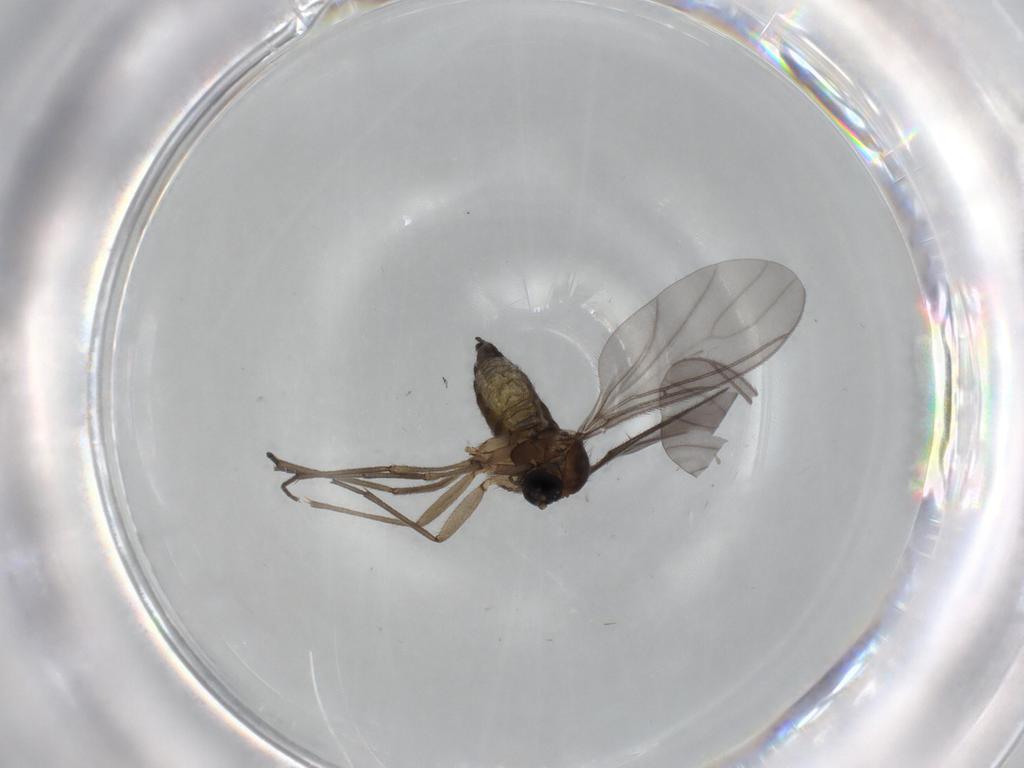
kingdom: Animalia
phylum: Arthropoda
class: Insecta
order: Diptera
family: Sciaridae
